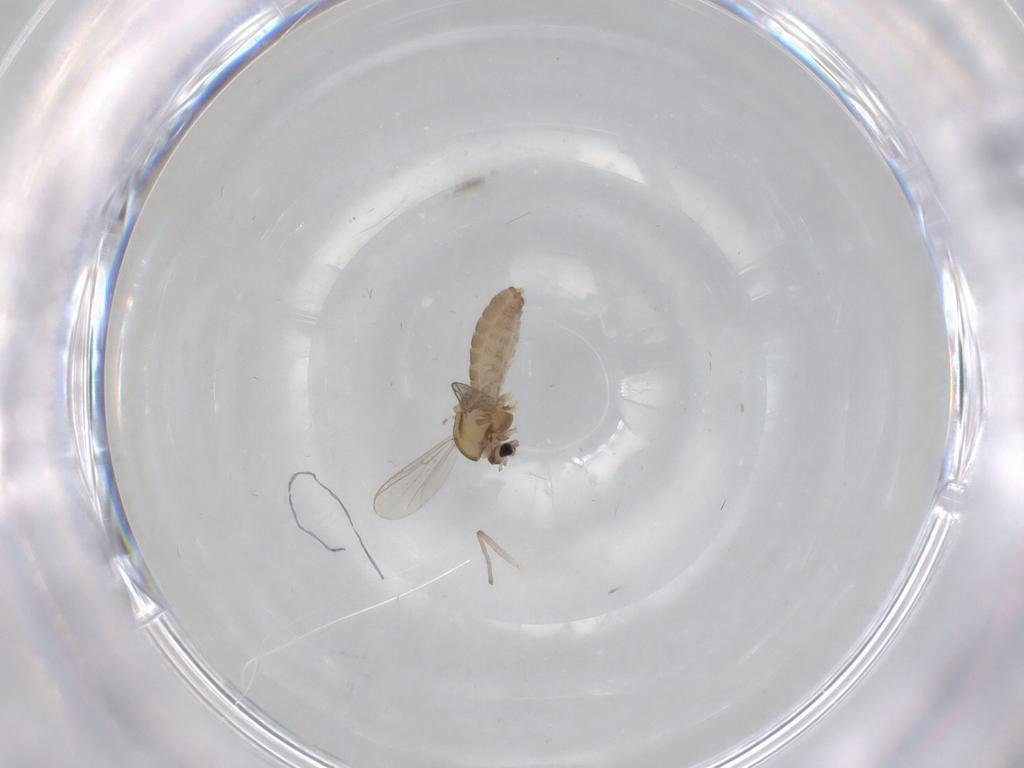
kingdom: Animalia
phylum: Arthropoda
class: Insecta
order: Diptera
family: Chironomidae
